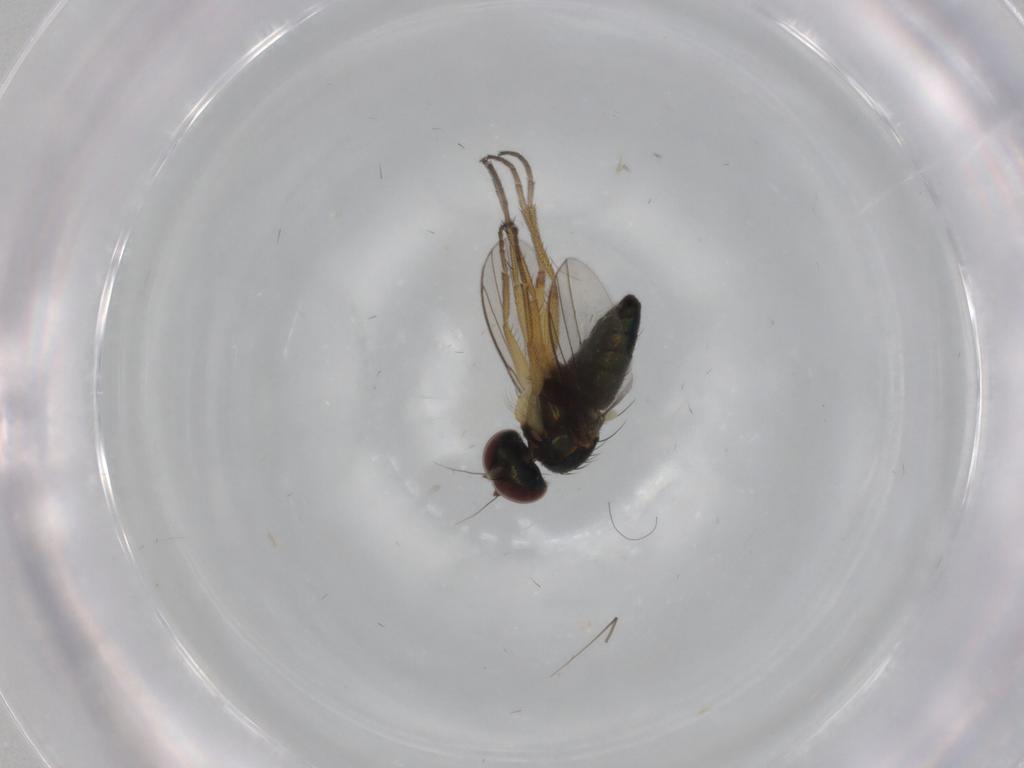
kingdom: Animalia
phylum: Arthropoda
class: Insecta
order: Diptera
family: Dolichopodidae
